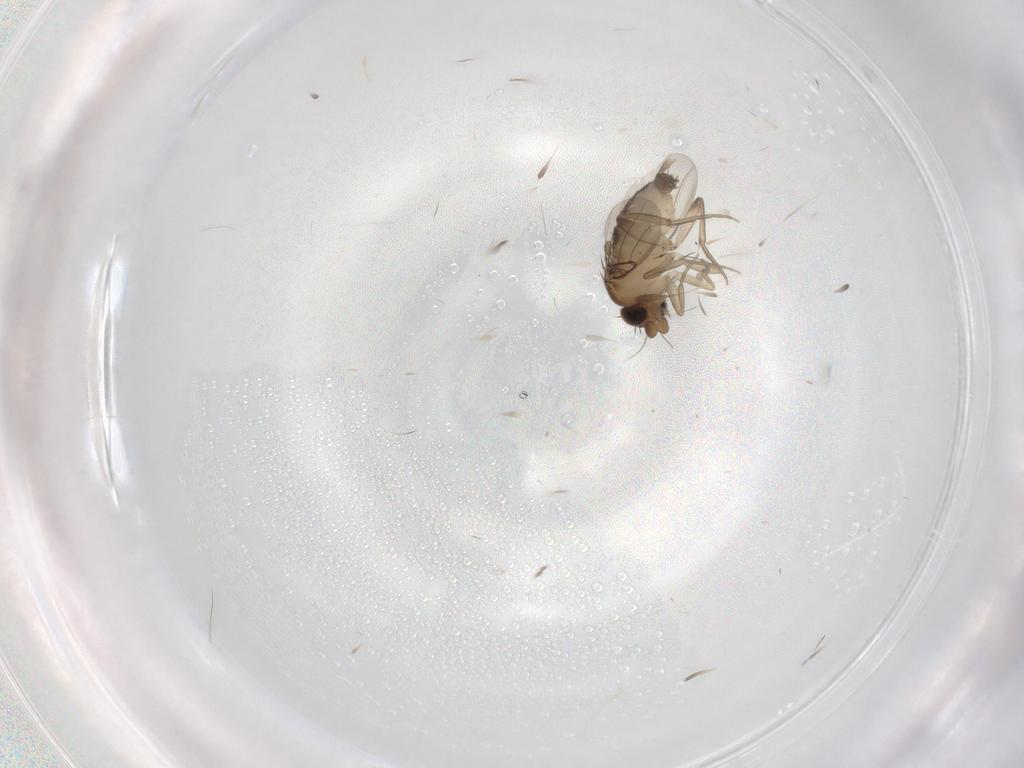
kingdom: Animalia
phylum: Arthropoda
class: Insecta
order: Diptera
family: Phoridae
